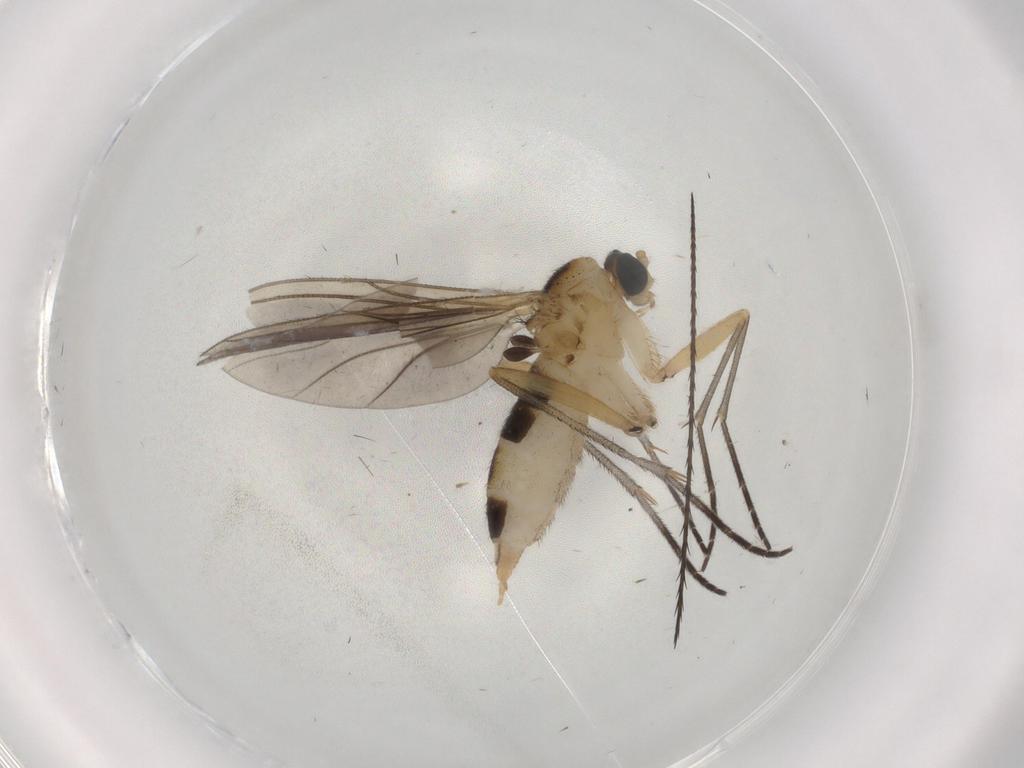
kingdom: Animalia
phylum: Arthropoda
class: Insecta
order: Diptera
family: Sciaridae
